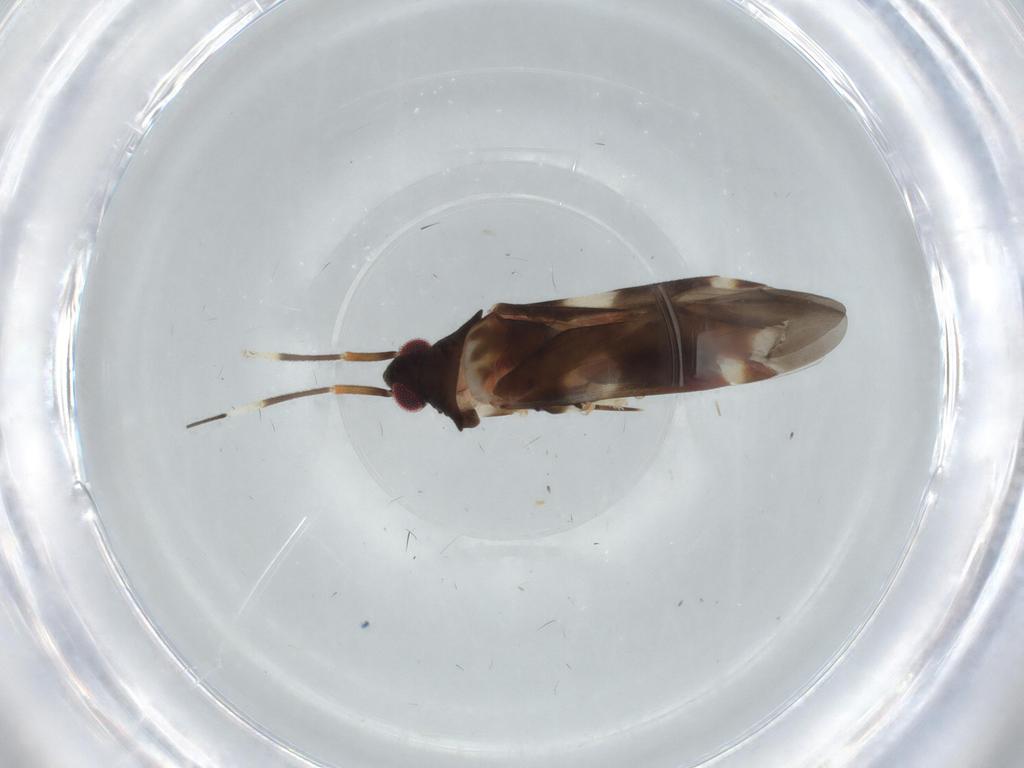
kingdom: Animalia
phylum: Arthropoda
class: Insecta
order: Hemiptera
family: Miridae
